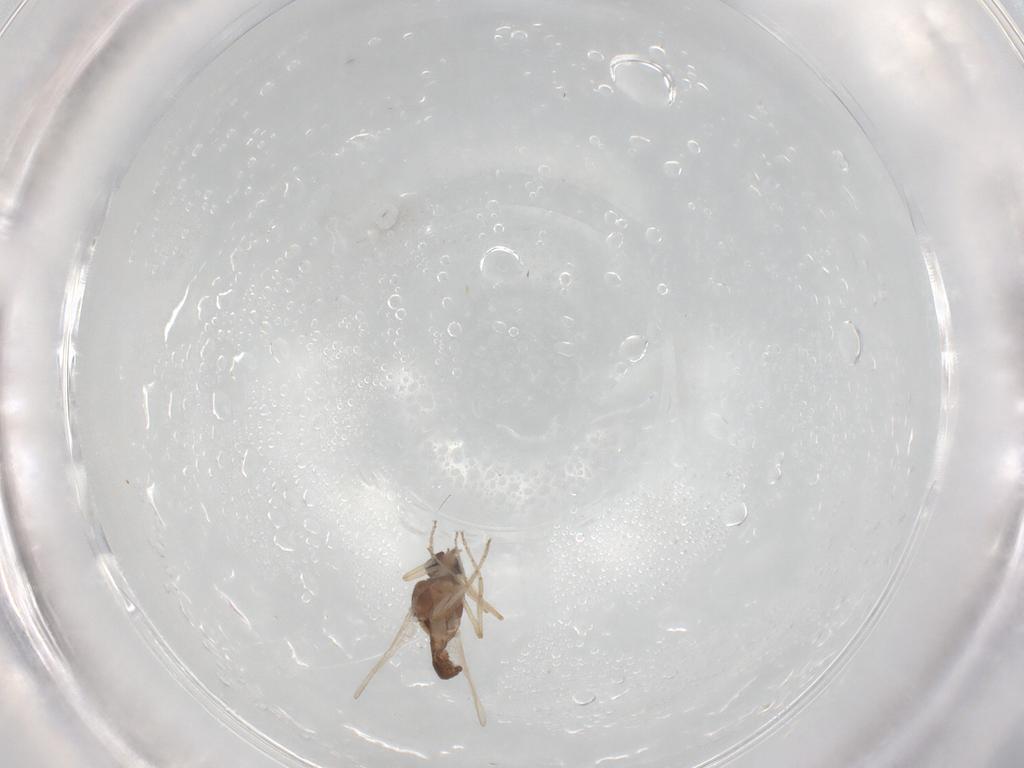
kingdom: Animalia
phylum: Arthropoda
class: Insecta
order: Diptera
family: Ceratopogonidae
